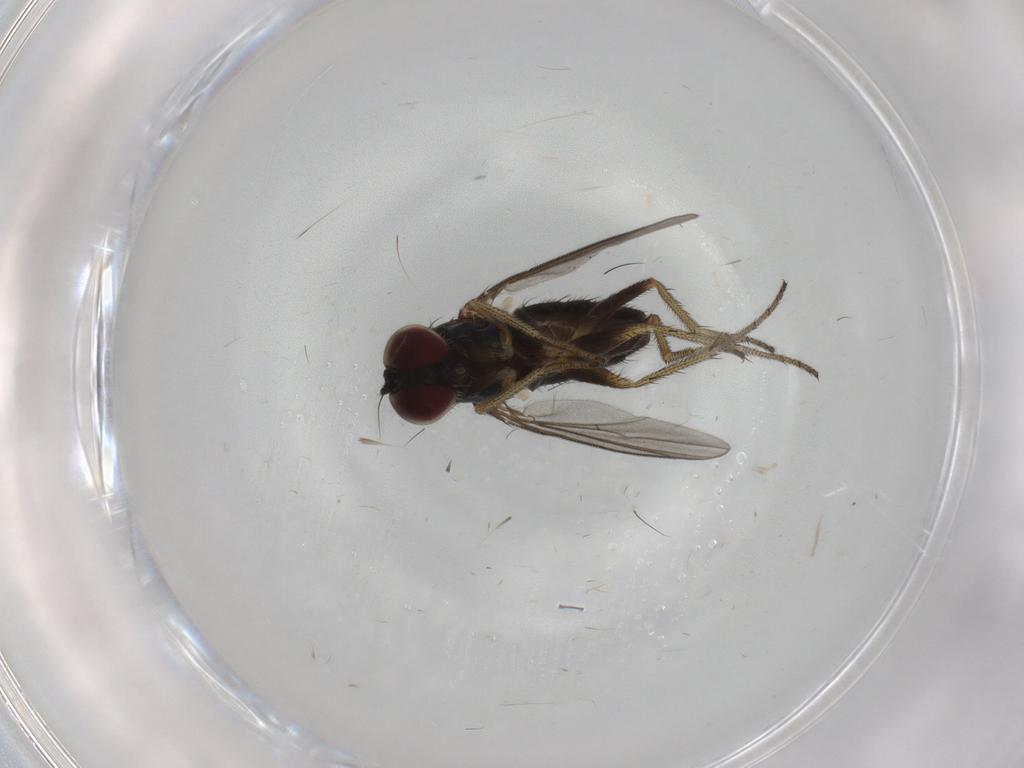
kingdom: Animalia
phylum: Arthropoda
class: Insecta
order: Diptera
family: Dolichopodidae
